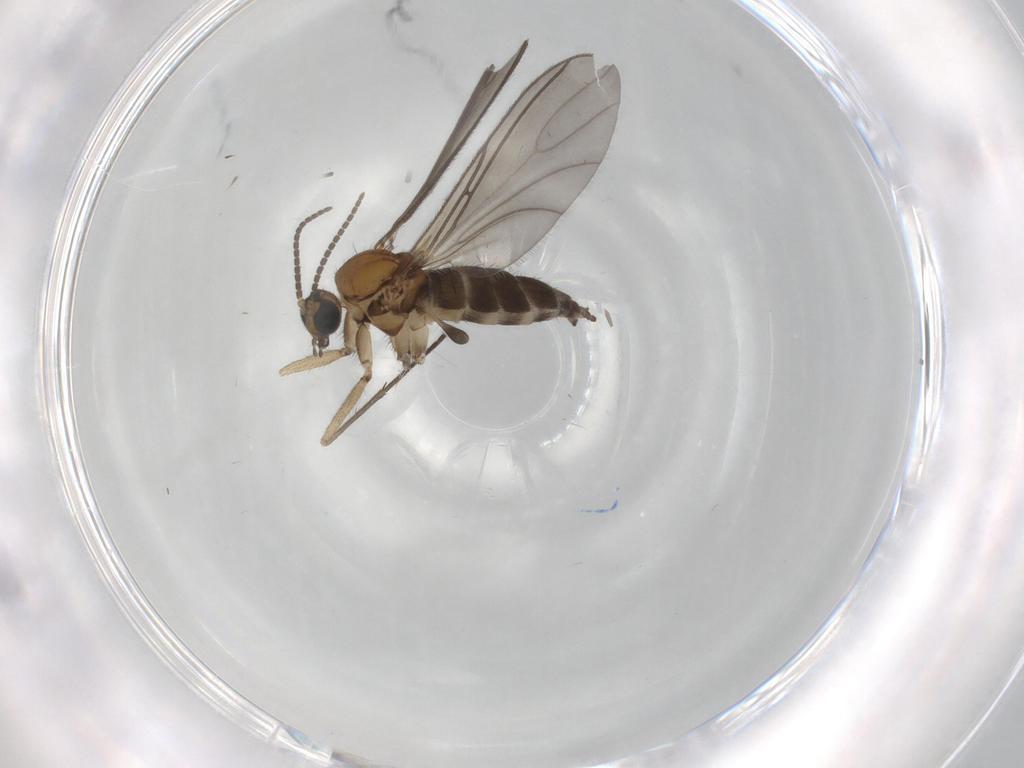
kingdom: Animalia
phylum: Arthropoda
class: Insecta
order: Diptera
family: Sciaridae
